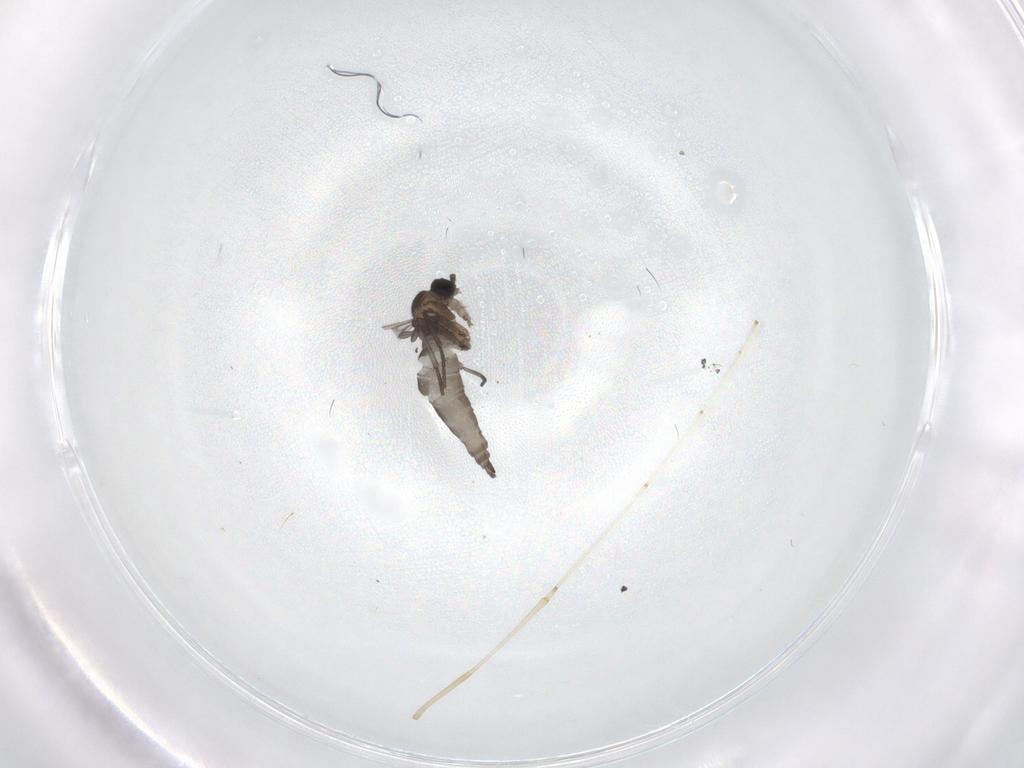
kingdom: Animalia
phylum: Arthropoda
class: Insecta
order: Diptera
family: Sciaridae
